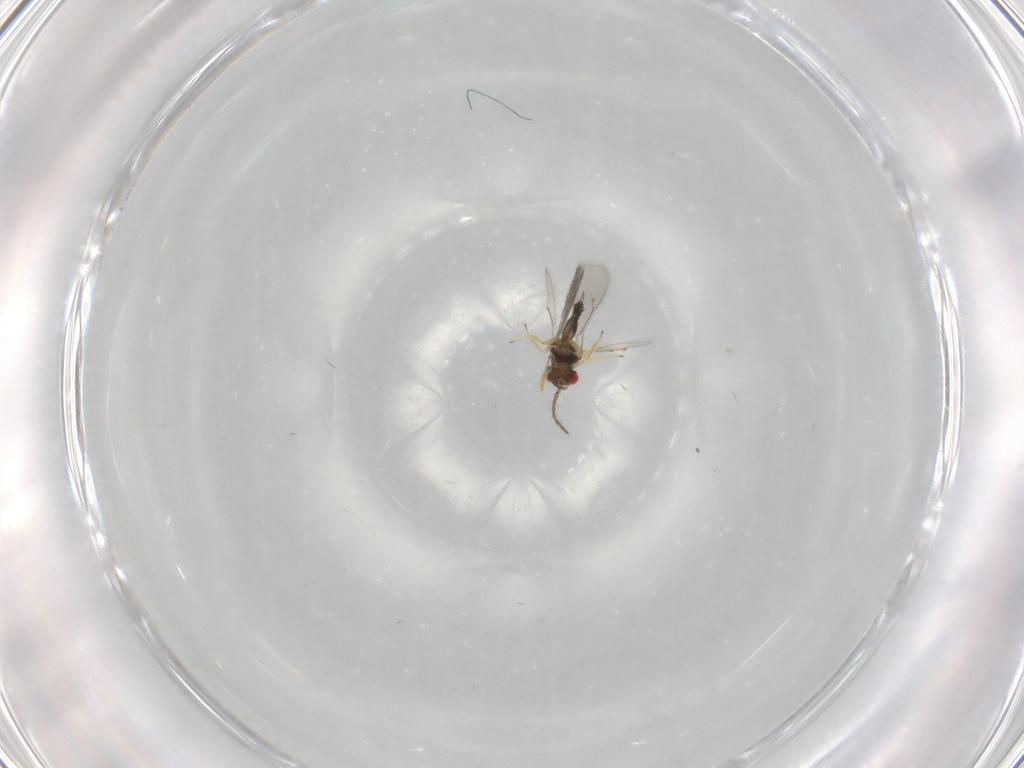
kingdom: Animalia
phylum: Arthropoda
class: Insecta
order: Hymenoptera
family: Eulophidae
